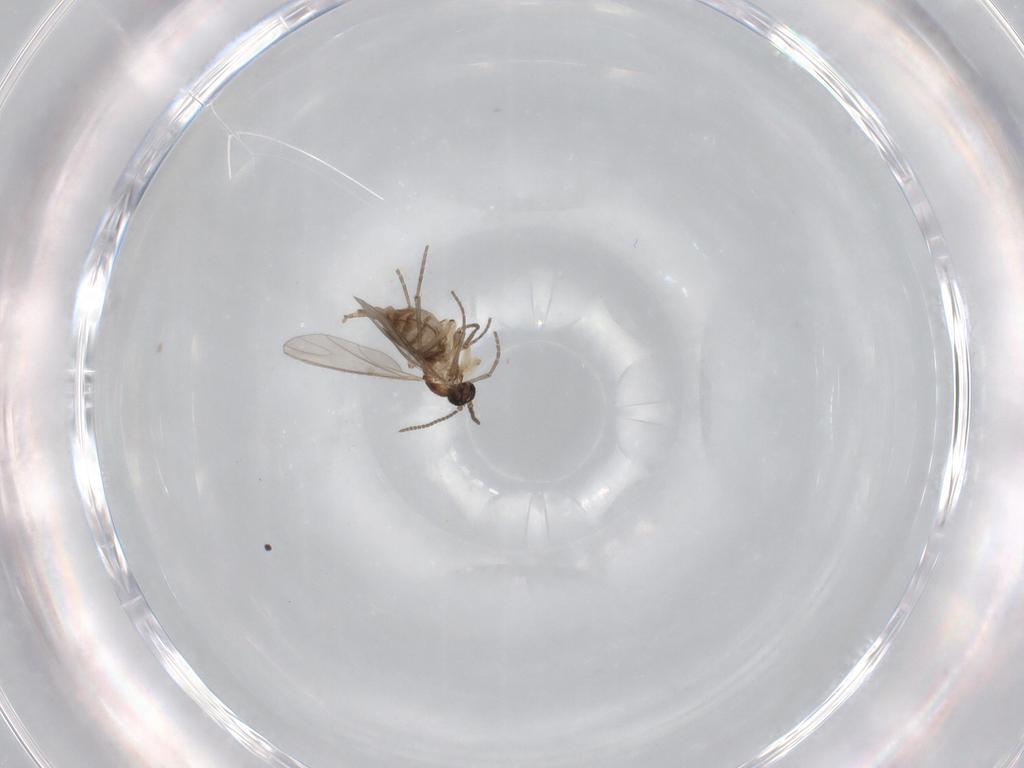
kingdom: Animalia
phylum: Arthropoda
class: Insecta
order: Diptera
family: Sciaridae
